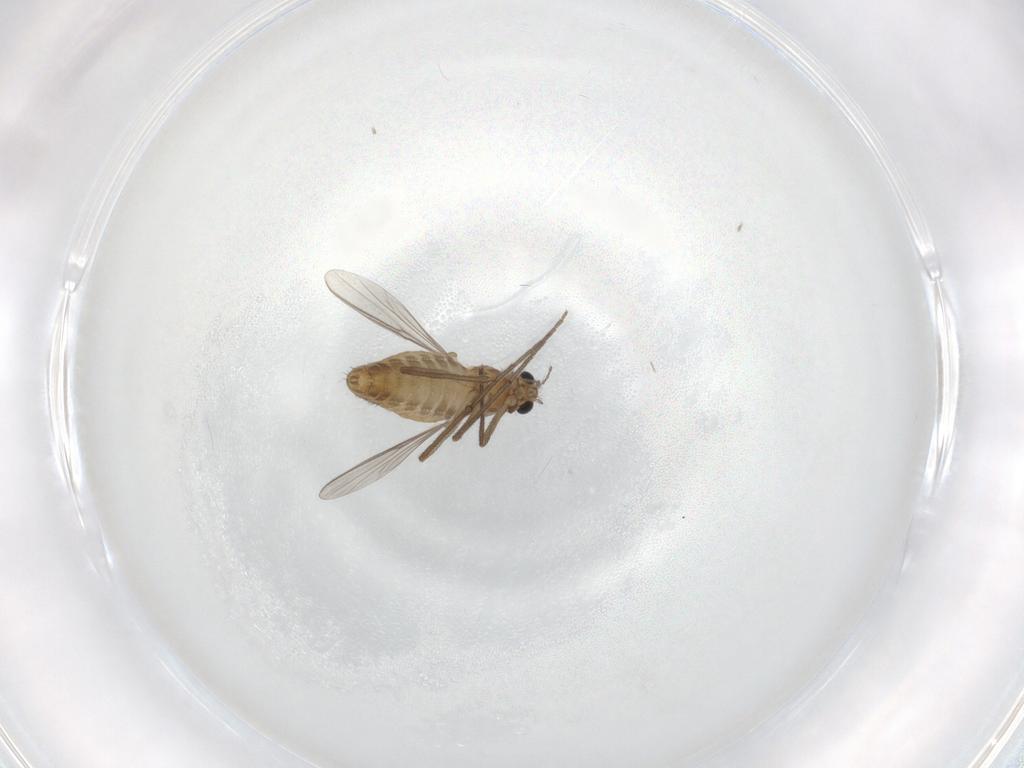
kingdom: Animalia
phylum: Arthropoda
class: Insecta
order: Diptera
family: Chironomidae
